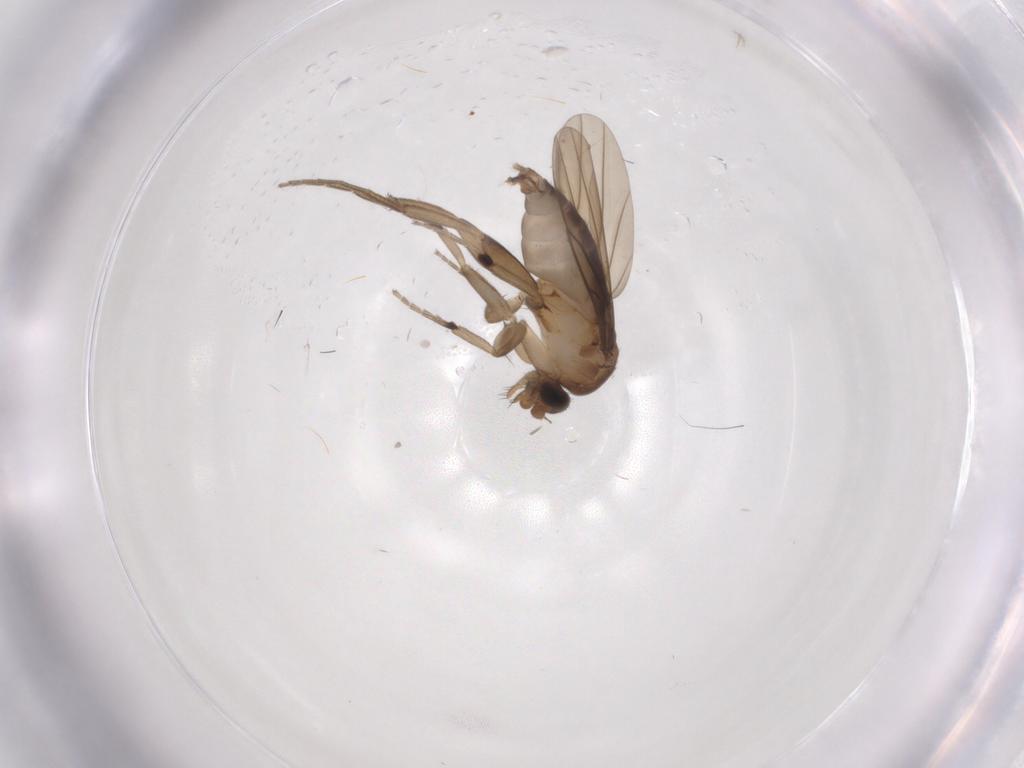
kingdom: Animalia
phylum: Arthropoda
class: Insecta
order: Diptera
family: Phoridae
